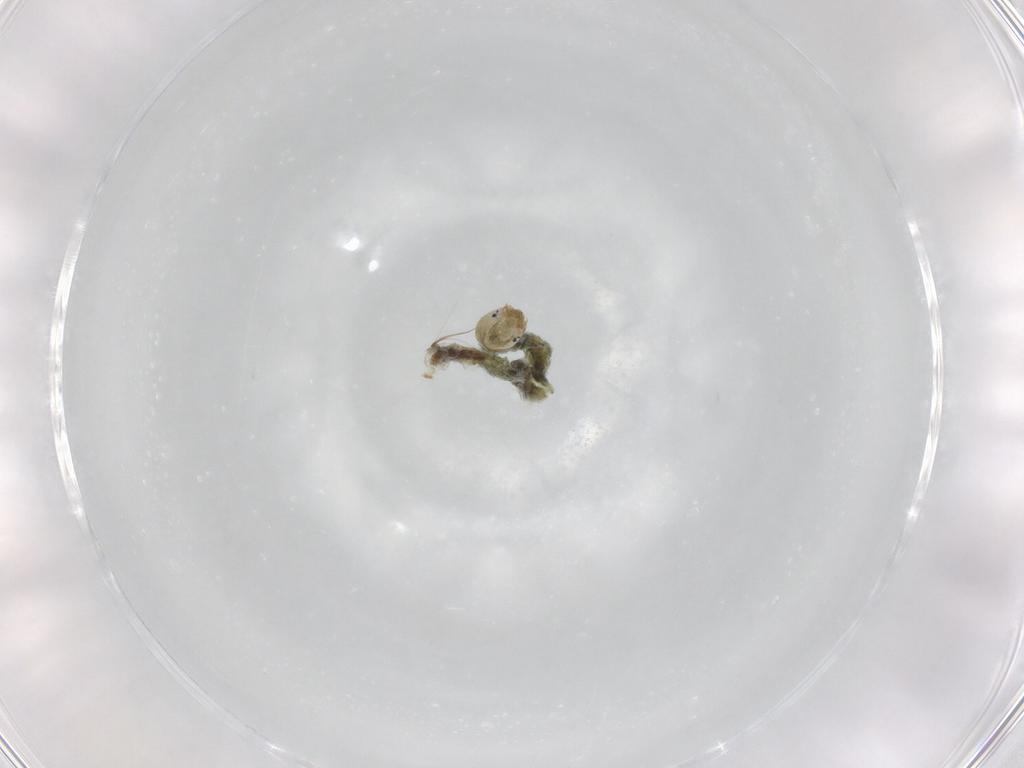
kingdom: Animalia
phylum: Arthropoda
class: Insecta
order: Diptera
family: Chironomidae
